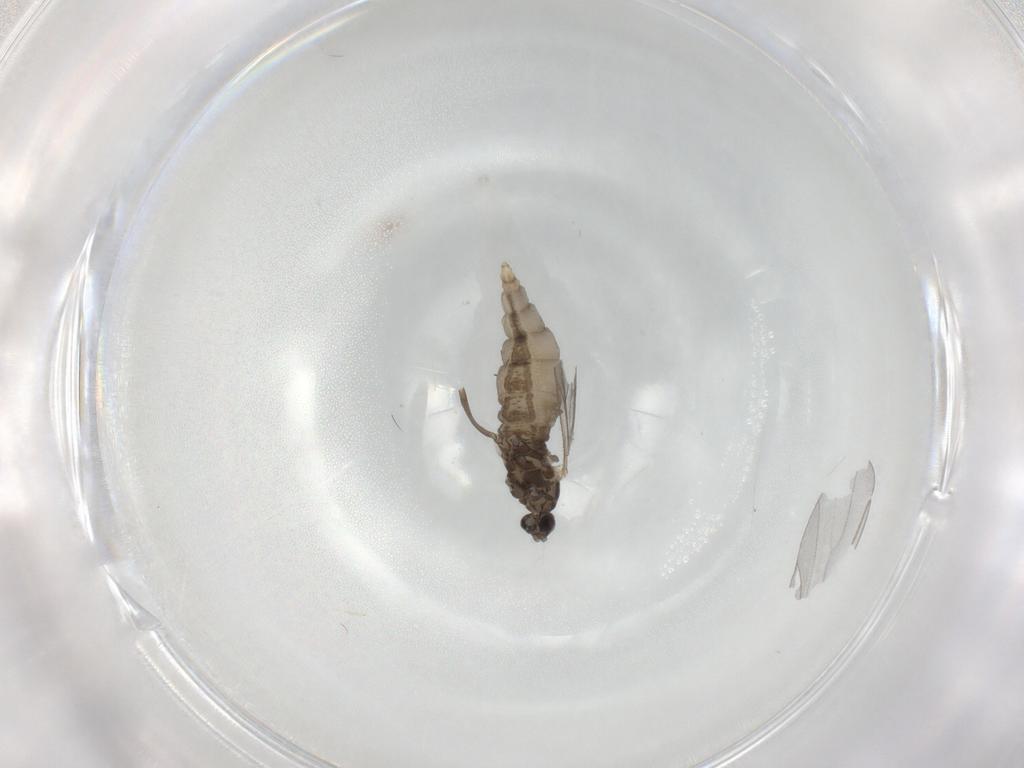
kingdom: Animalia
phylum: Arthropoda
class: Insecta
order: Diptera
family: Cecidomyiidae
